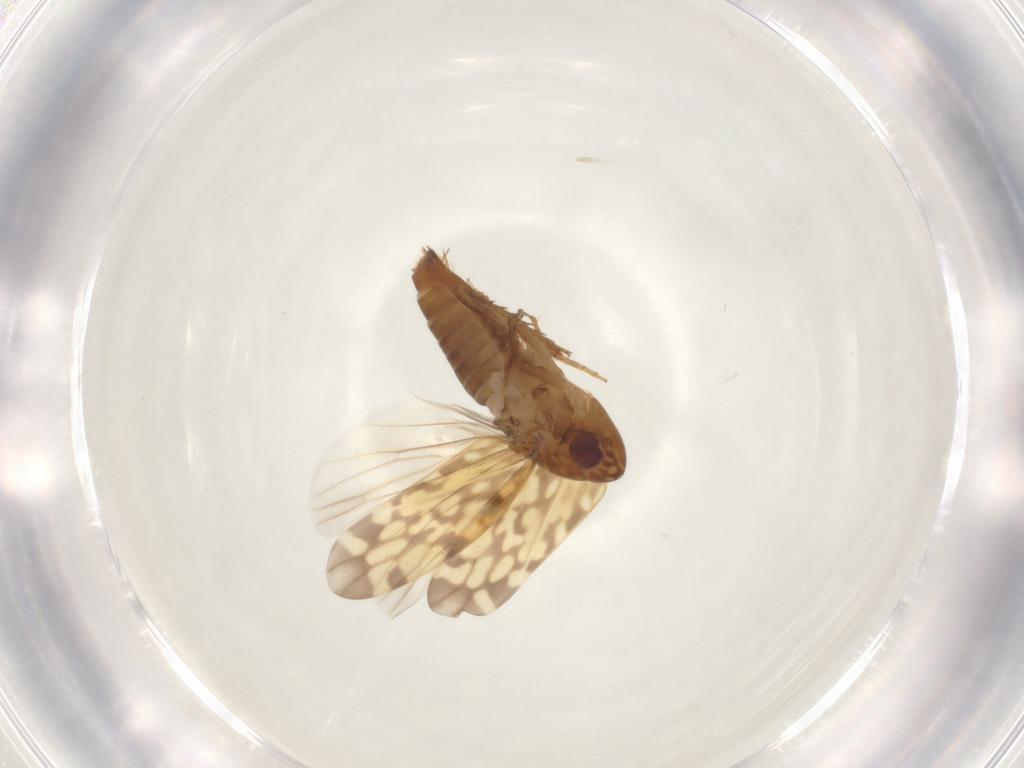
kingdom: Animalia
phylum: Arthropoda
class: Insecta
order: Hemiptera
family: Cicadellidae
